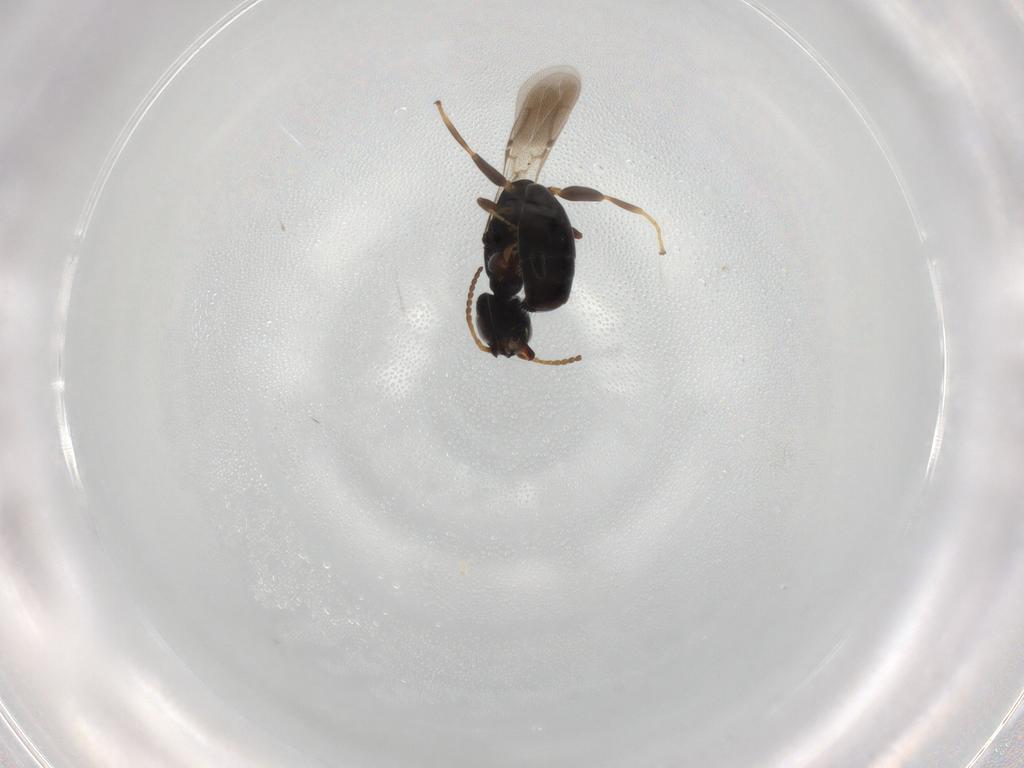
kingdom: Animalia
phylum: Arthropoda
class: Insecta
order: Hymenoptera
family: Bethylidae
